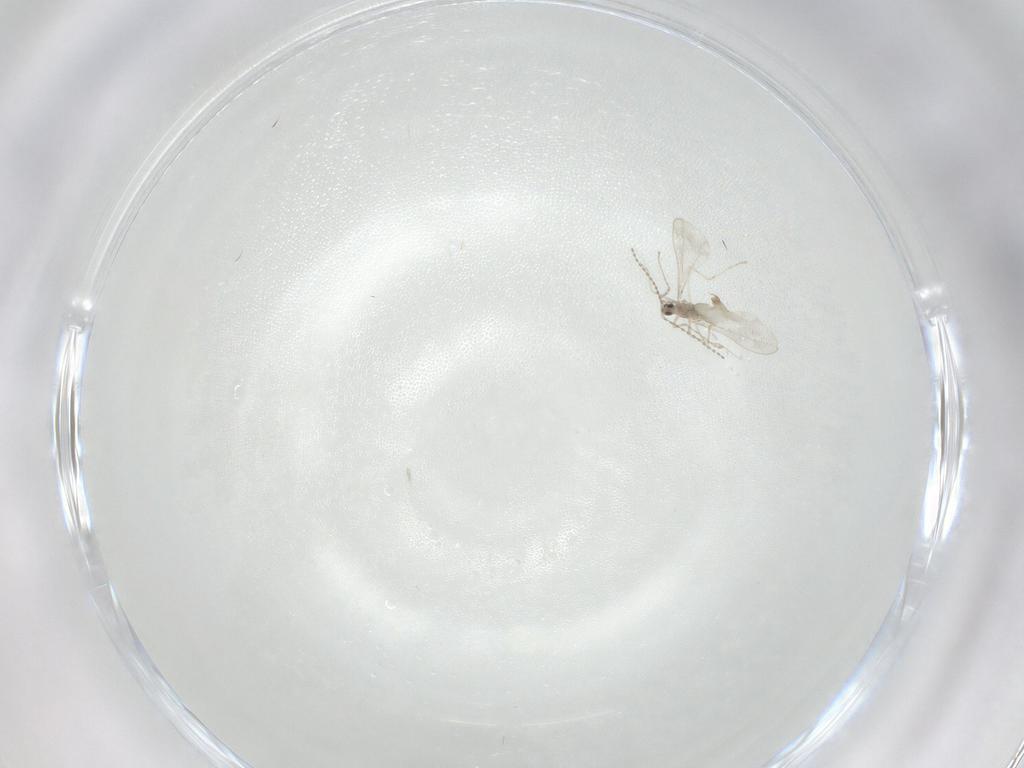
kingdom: Animalia
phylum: Arthropoda
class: Insecta
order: Diptera
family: Cecidomyiidae
